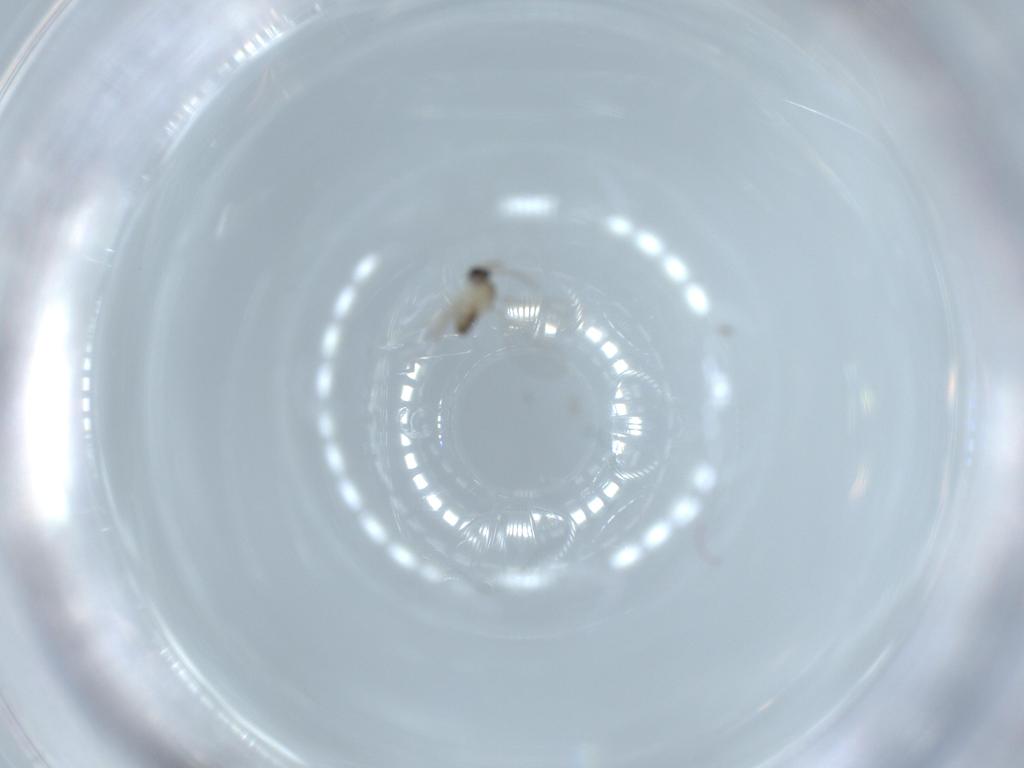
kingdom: Animalia
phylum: Arthropoda
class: Insecta
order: Diptera
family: Cecidomyiidae
